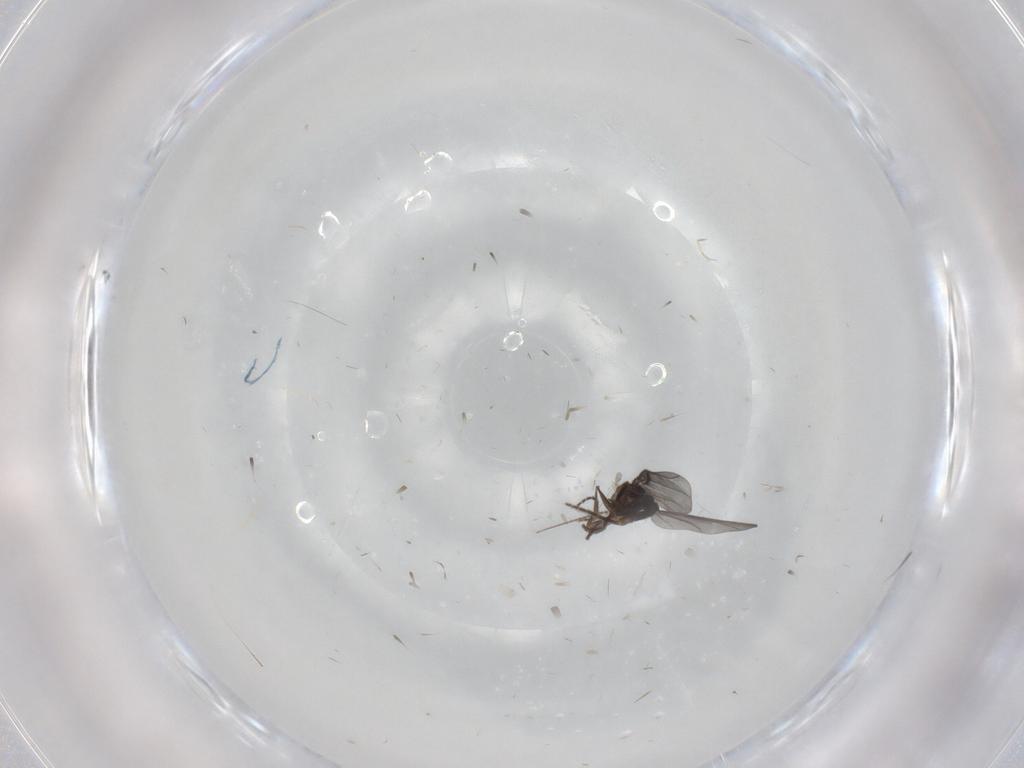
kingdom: Animalia
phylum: Arthropoda
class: Insecta
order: Diptera
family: Phoridae
